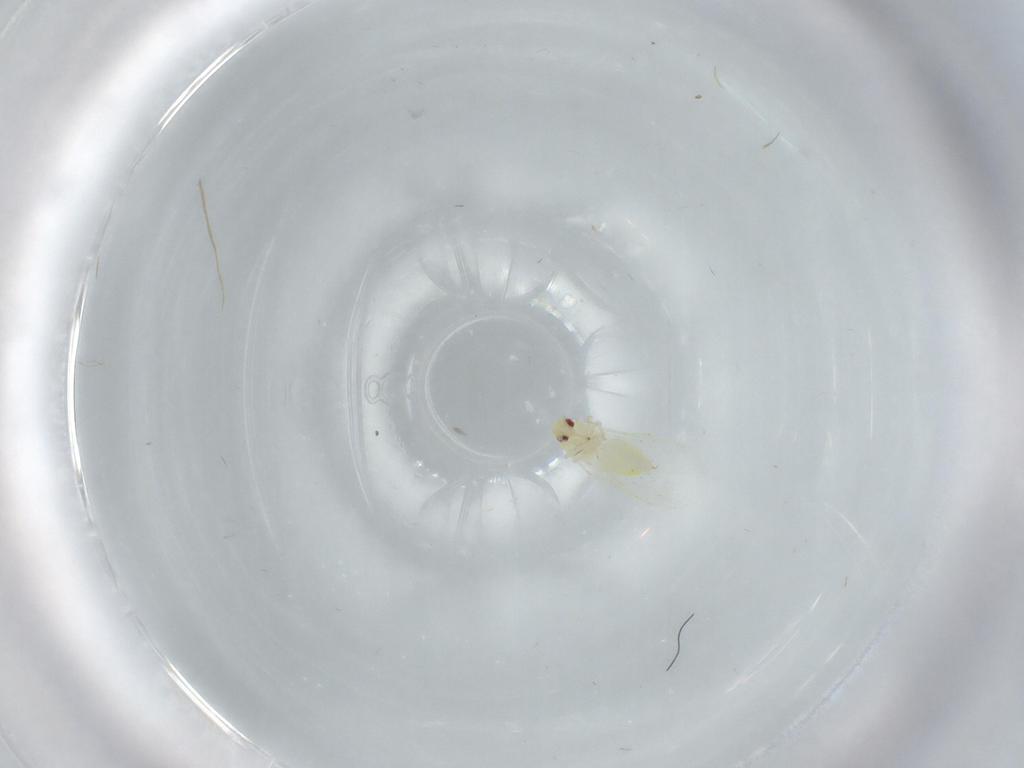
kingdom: Animalia
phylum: Arthropoda
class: Insecta
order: Hemiptera
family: Aleyrodidae
